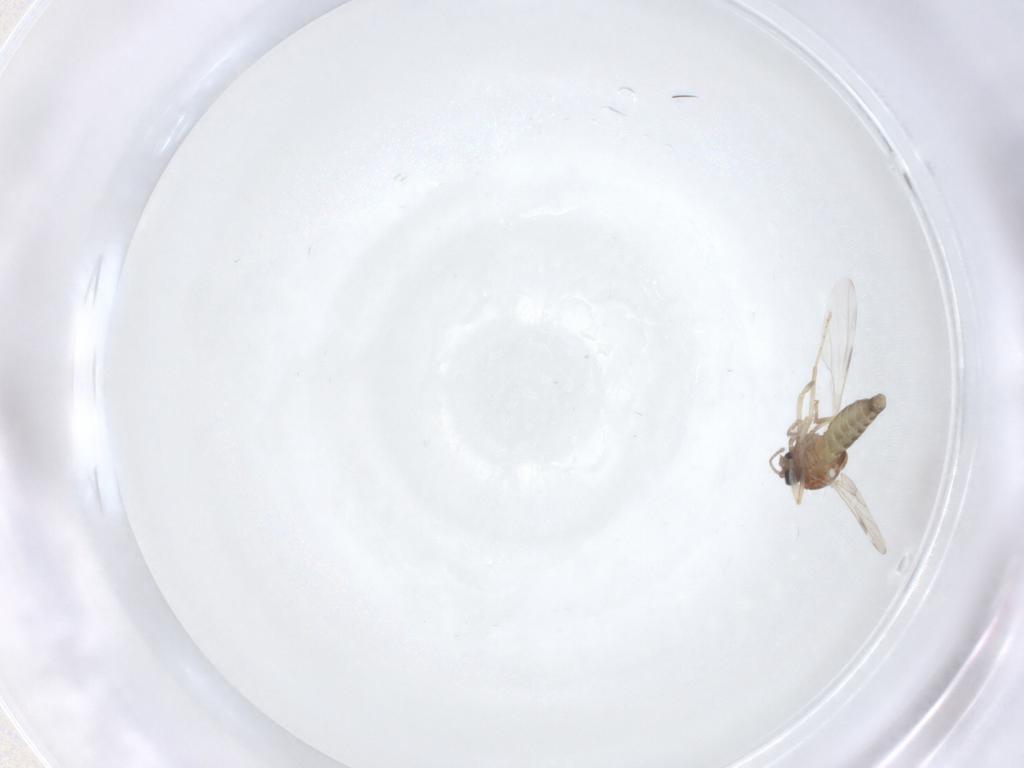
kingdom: Animalia
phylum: Arthropoda
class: Insecta
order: Diptera
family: Ceratopogonidae
